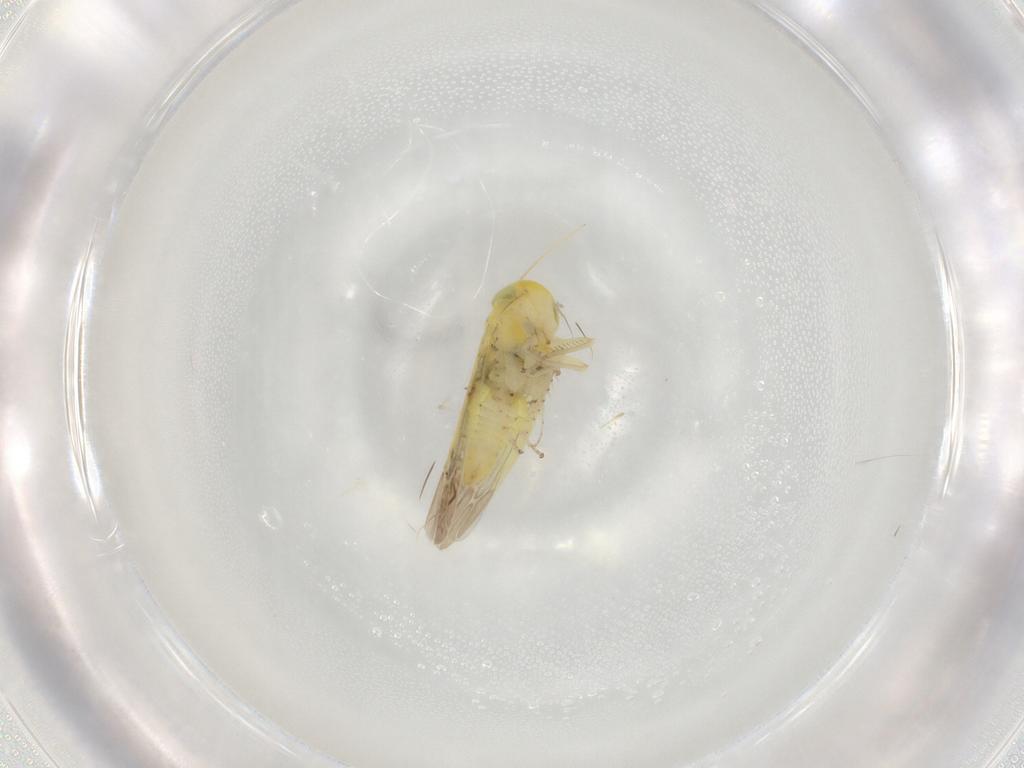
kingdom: Animalia
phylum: Arthropoda
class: Insecta
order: Hemiptera
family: Cicadellidae
